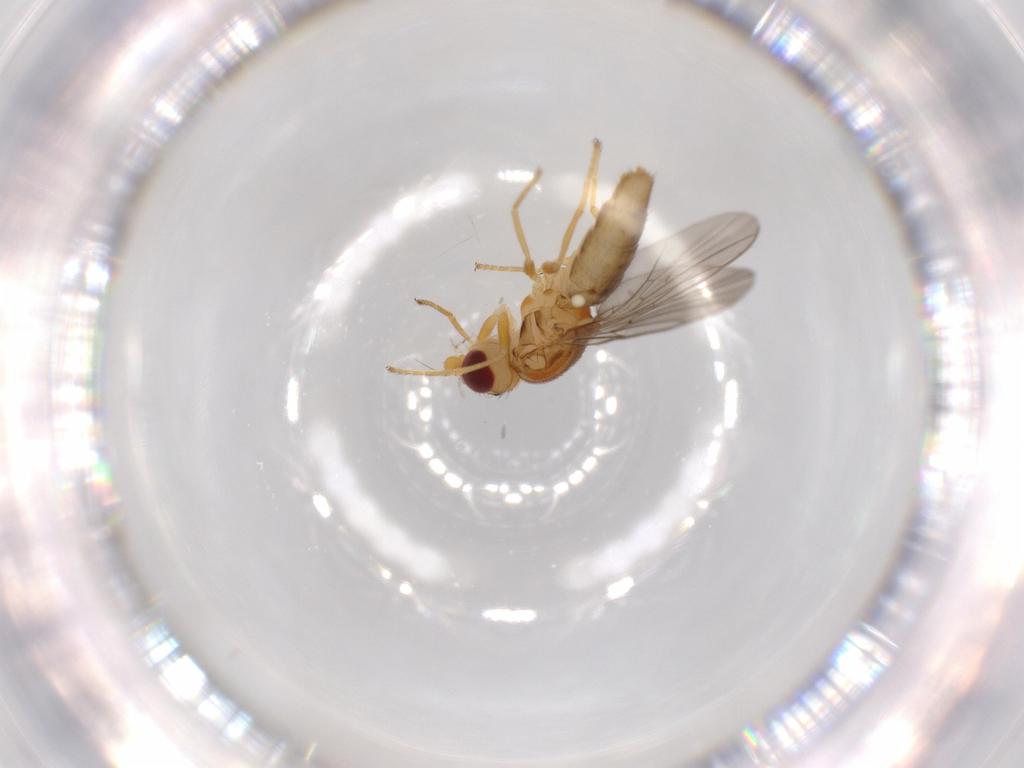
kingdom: Animalia
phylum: Arthropoda
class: Insecta
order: Diptera
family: Chloropidae
